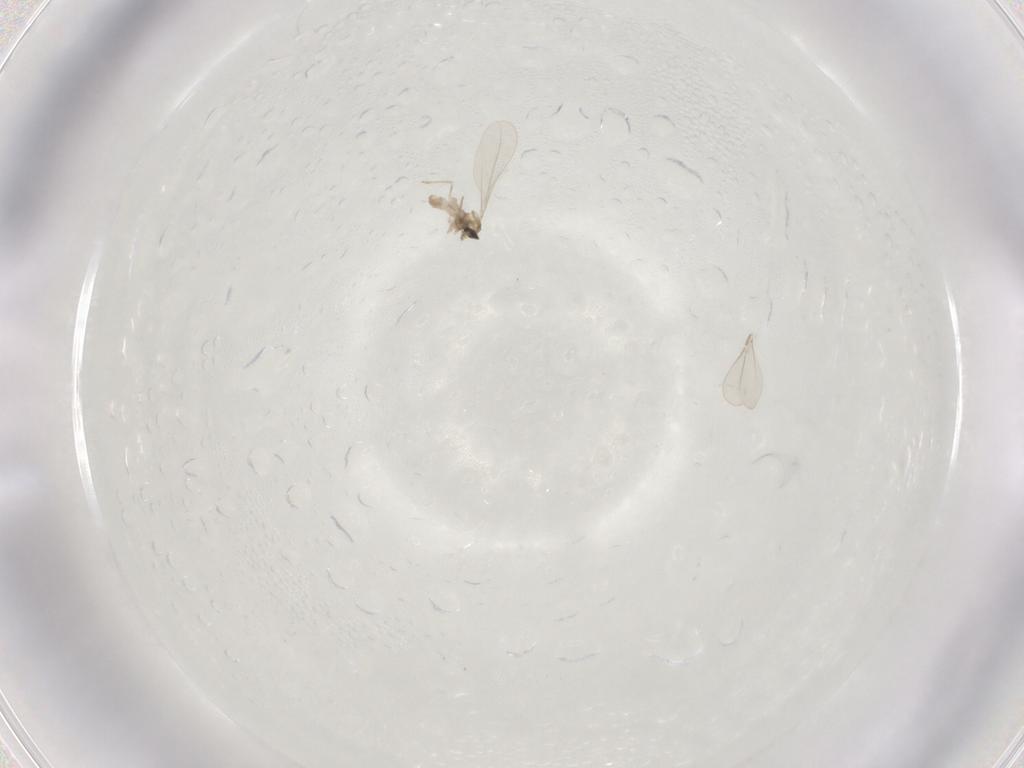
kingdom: Animalia
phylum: Arthropoda
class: Insecta
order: Diptera
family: Cecidomyiidae
